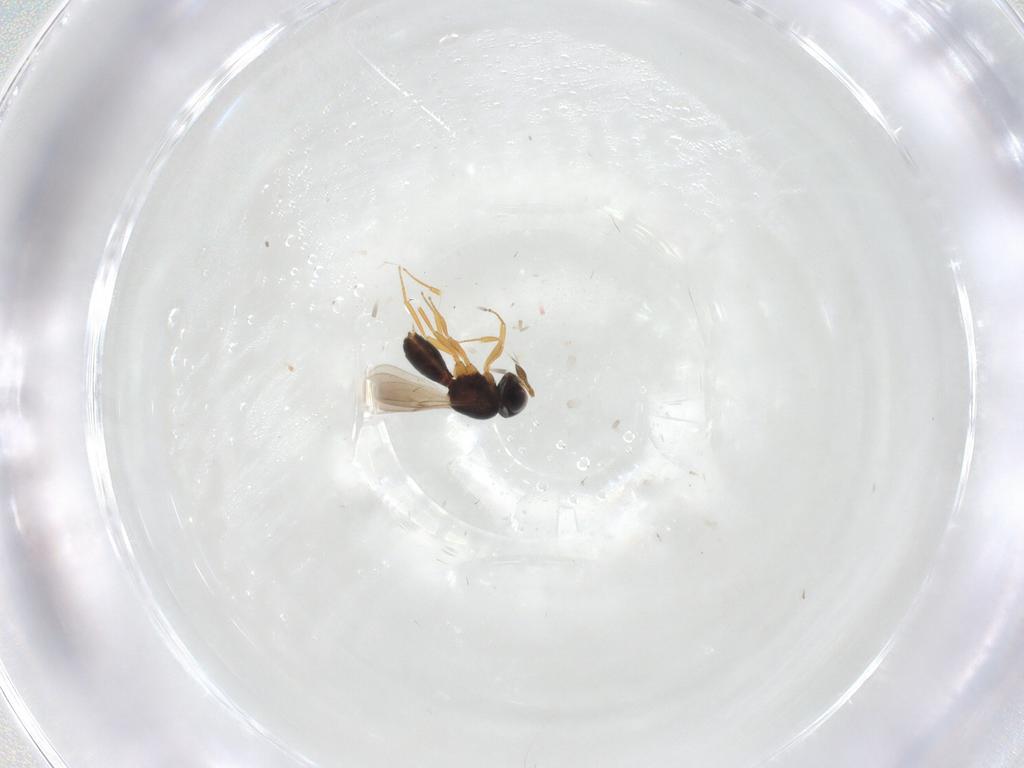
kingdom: Animalia
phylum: Arthropoda
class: Insecta
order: Hymenoptera
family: Scelionidae
